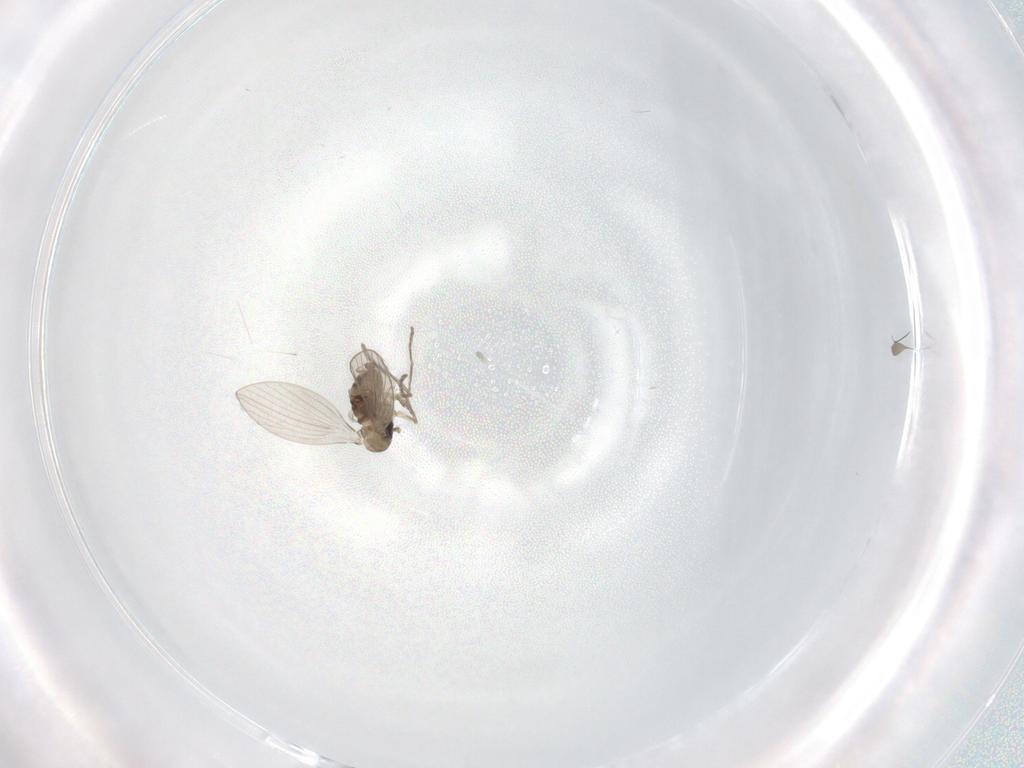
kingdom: Animalia
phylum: Arthropoda
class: Insecta
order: Diptera
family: Psychodidae
